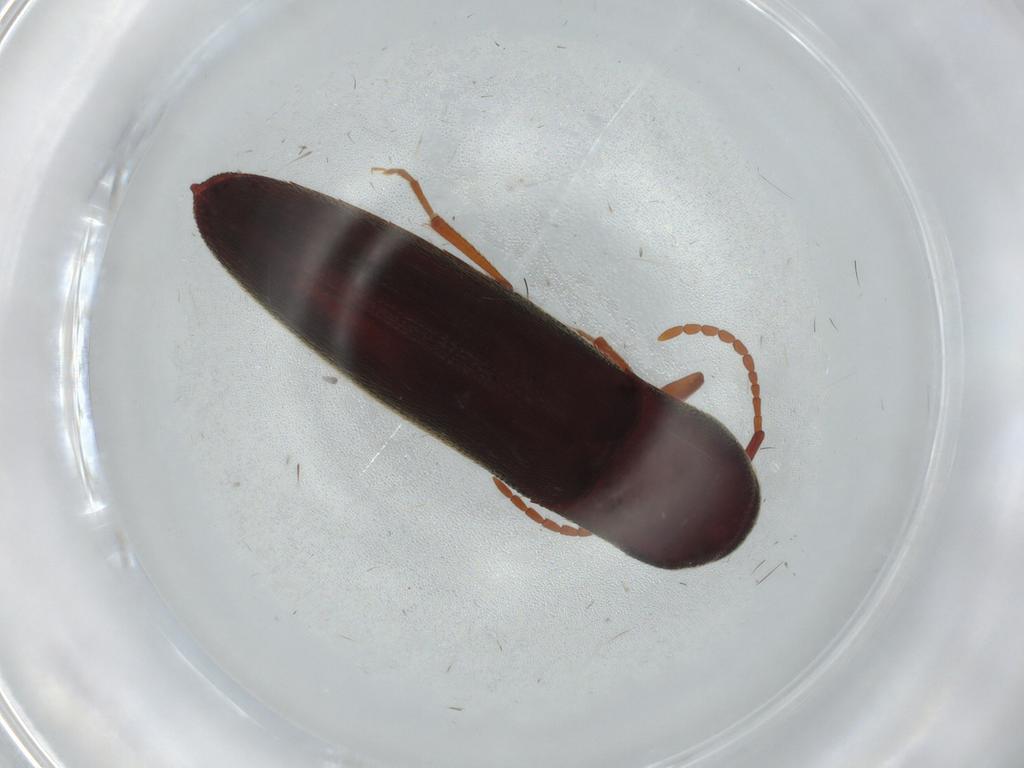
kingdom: Animalia
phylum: Arthropoda
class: Insecta
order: Coleoptera
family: Eucnemidae
